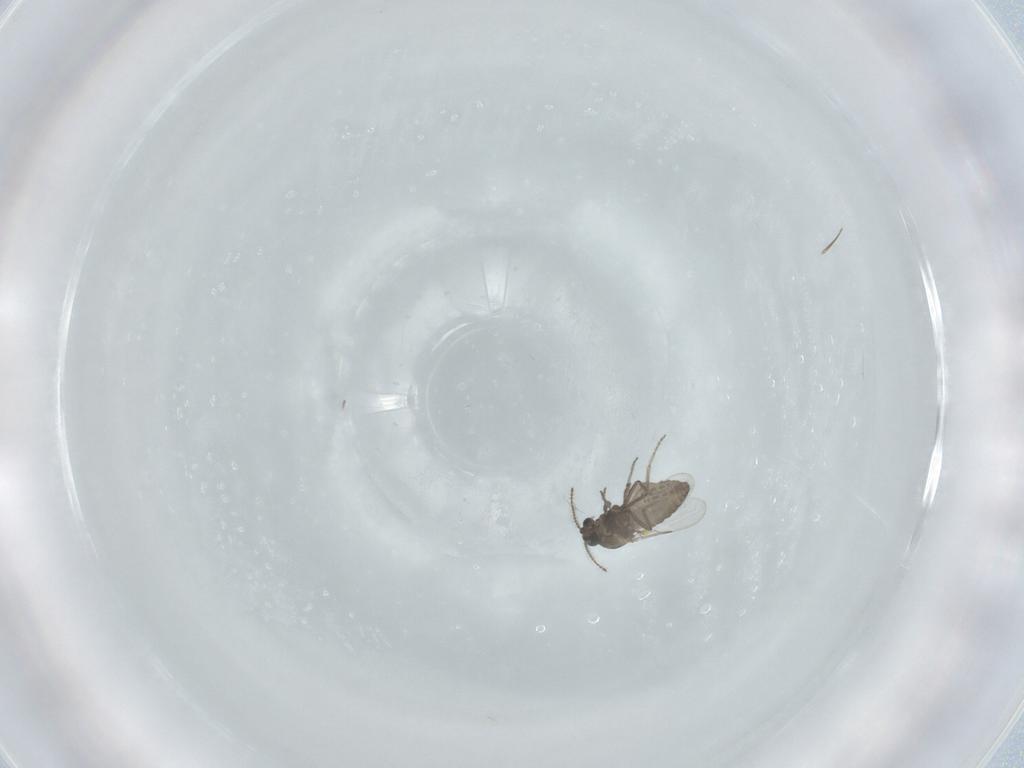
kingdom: Animalia
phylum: Arthropoda
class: Insecta
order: Diptera
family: Ceratopogonidae
